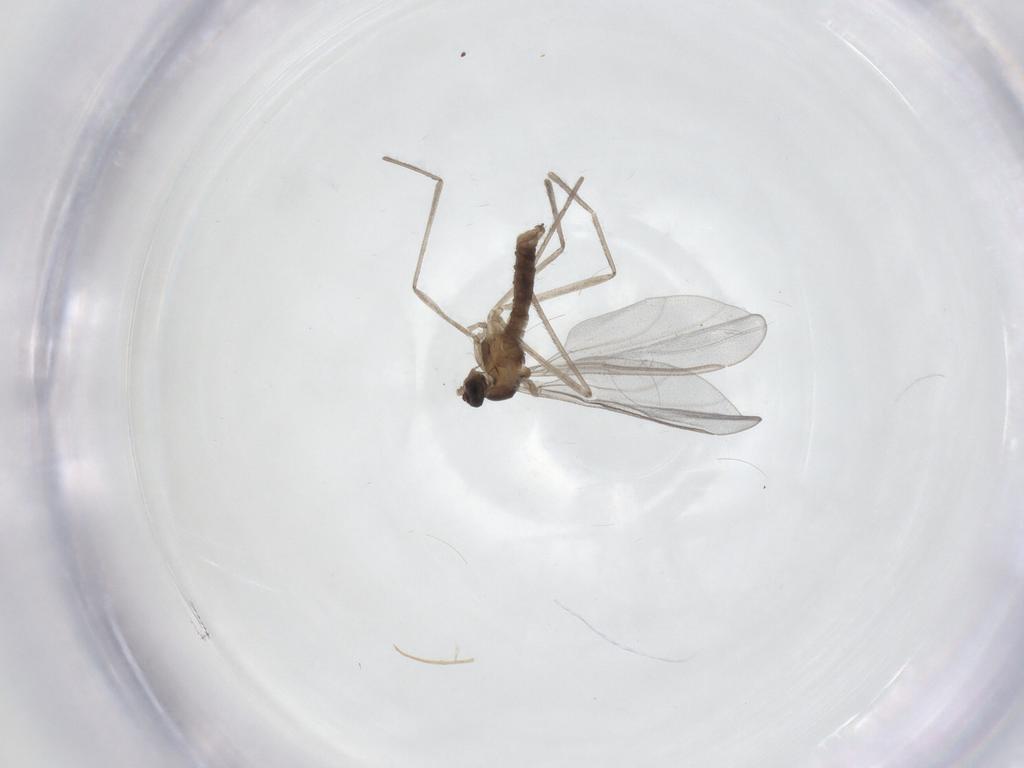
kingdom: Animalia
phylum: Arthropoda
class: Insecta
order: Diptera
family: Cecidomyiidae
